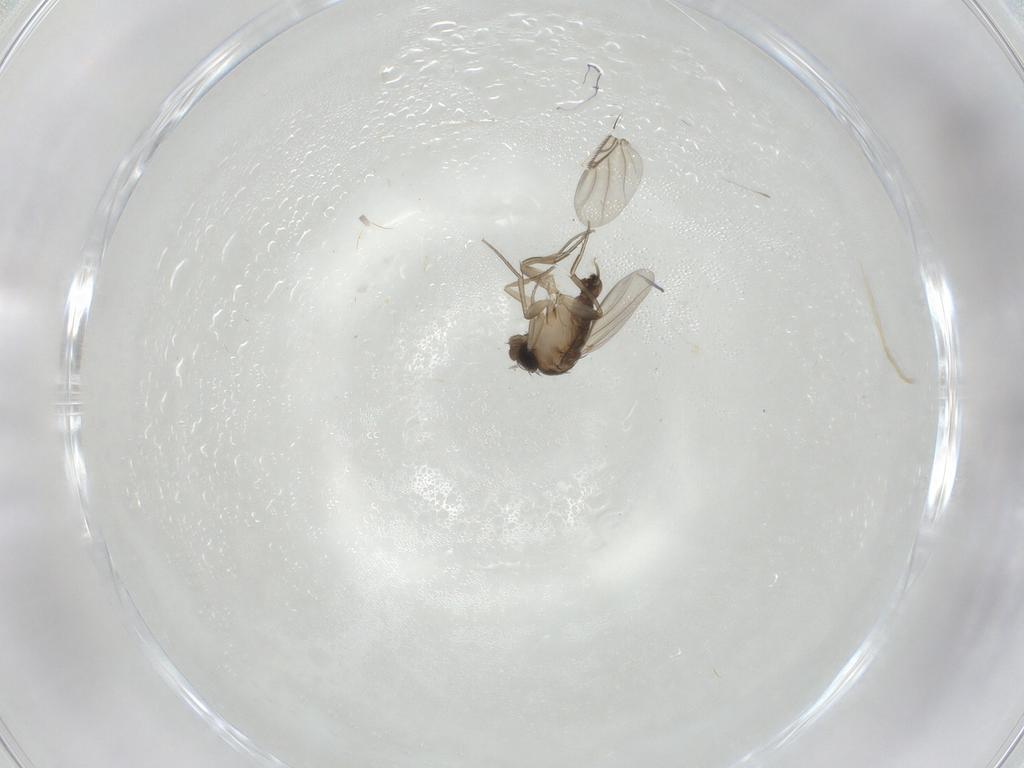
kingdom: Animalia
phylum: Arthropoda
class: Insecta
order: Diptera
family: Phoridae
